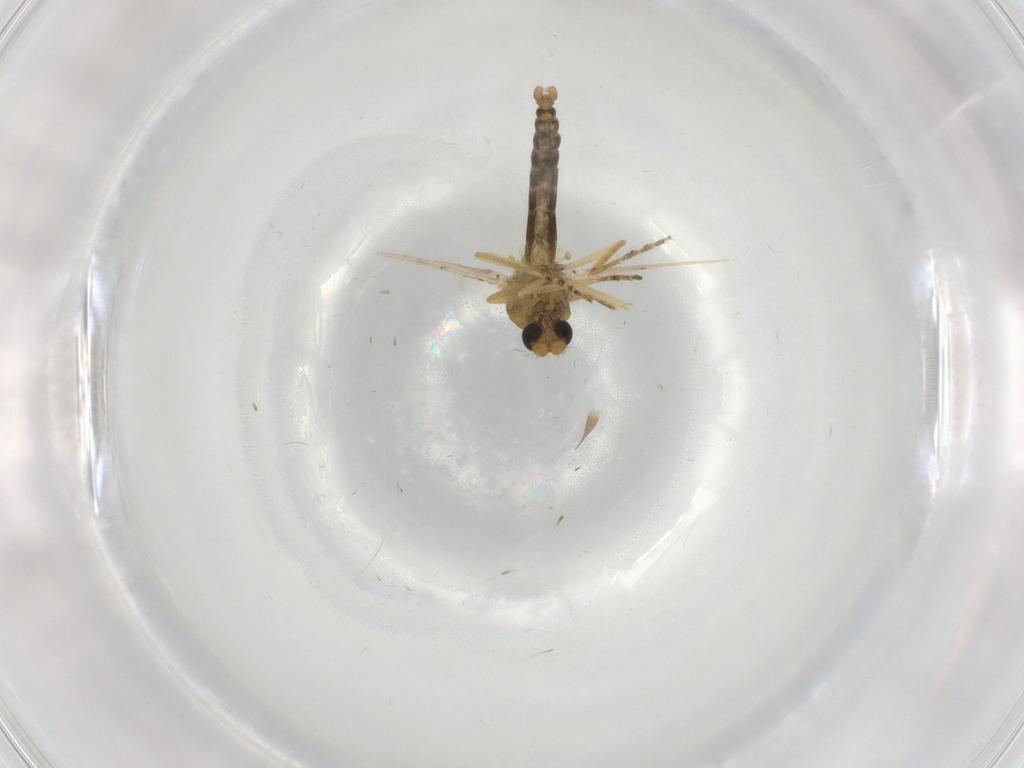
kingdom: Animalia
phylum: Arthropoda
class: Insecta
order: Diptera
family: Ceratopogonidae
